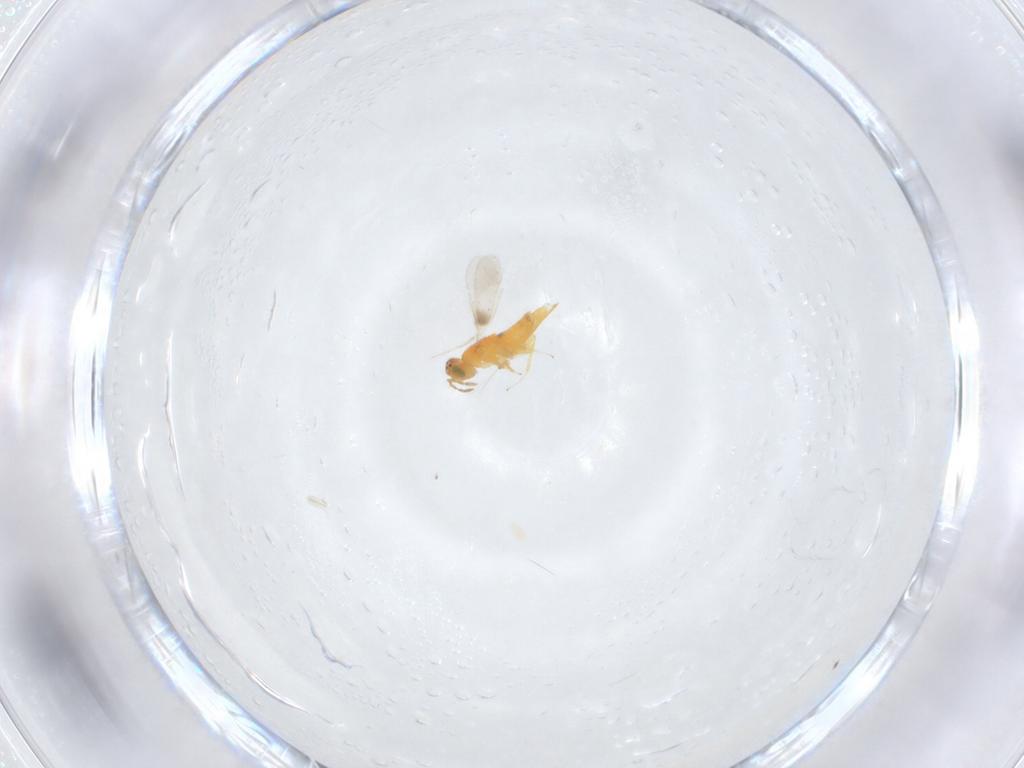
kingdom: Animalia
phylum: Arthropoda
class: Insecta
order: Hymenoptera
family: Aphelinidae
